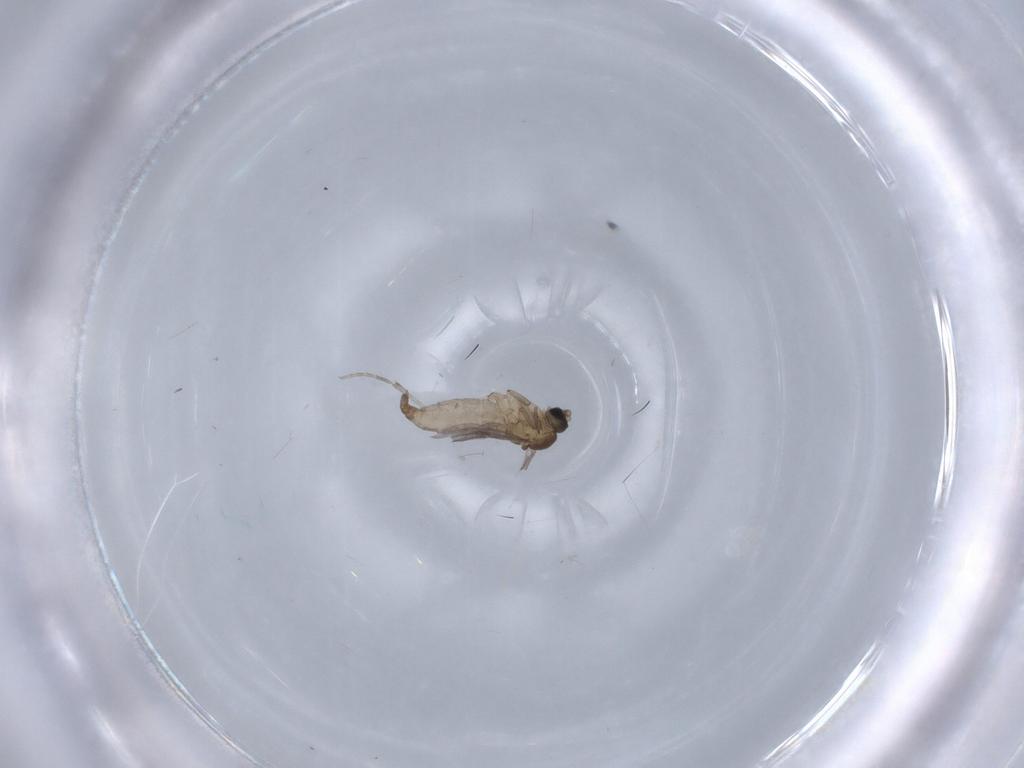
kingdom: Animalia
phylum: Arthropoda
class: Insecta
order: Diptera
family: Sciaridae
